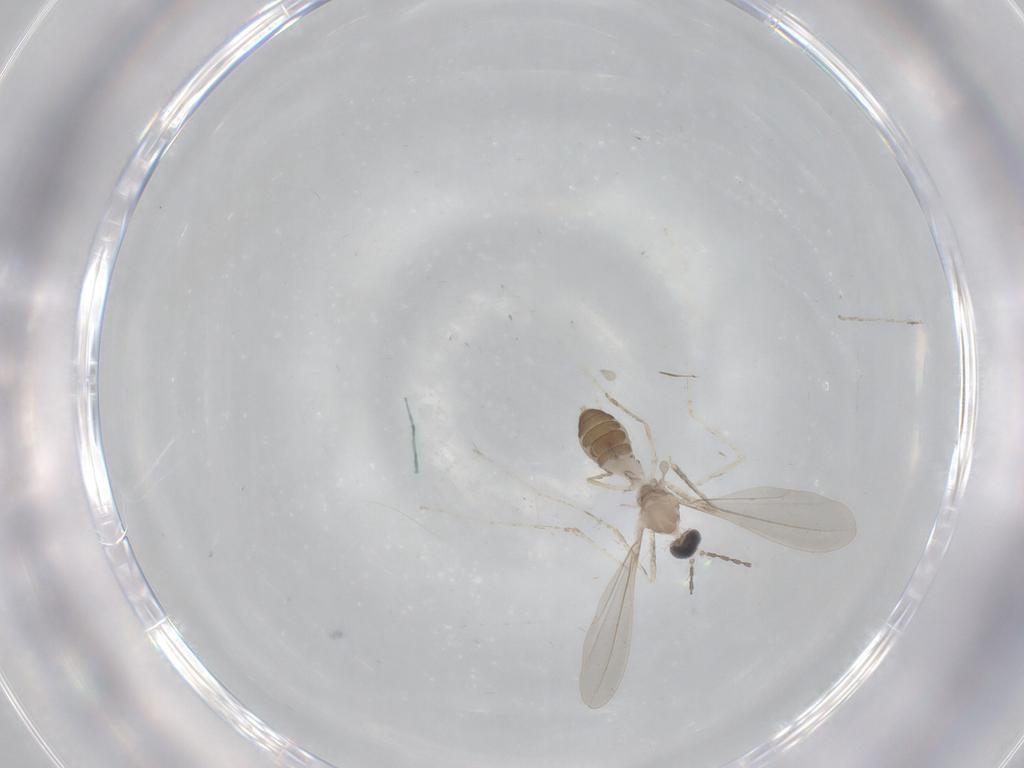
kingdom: Animalia
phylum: Arthropoda
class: Insecta
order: Diptera
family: Cecidomyiidae
